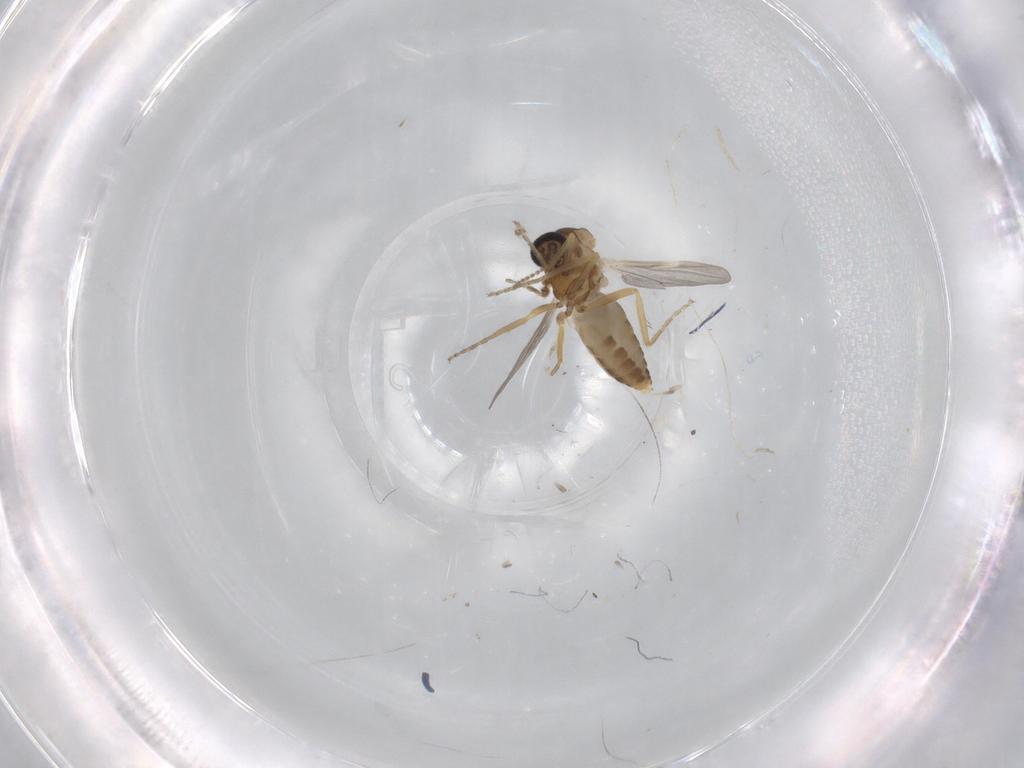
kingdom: Animalia
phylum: Arthropoda
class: Insecta
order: Diptera
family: Ceratopogonidae
